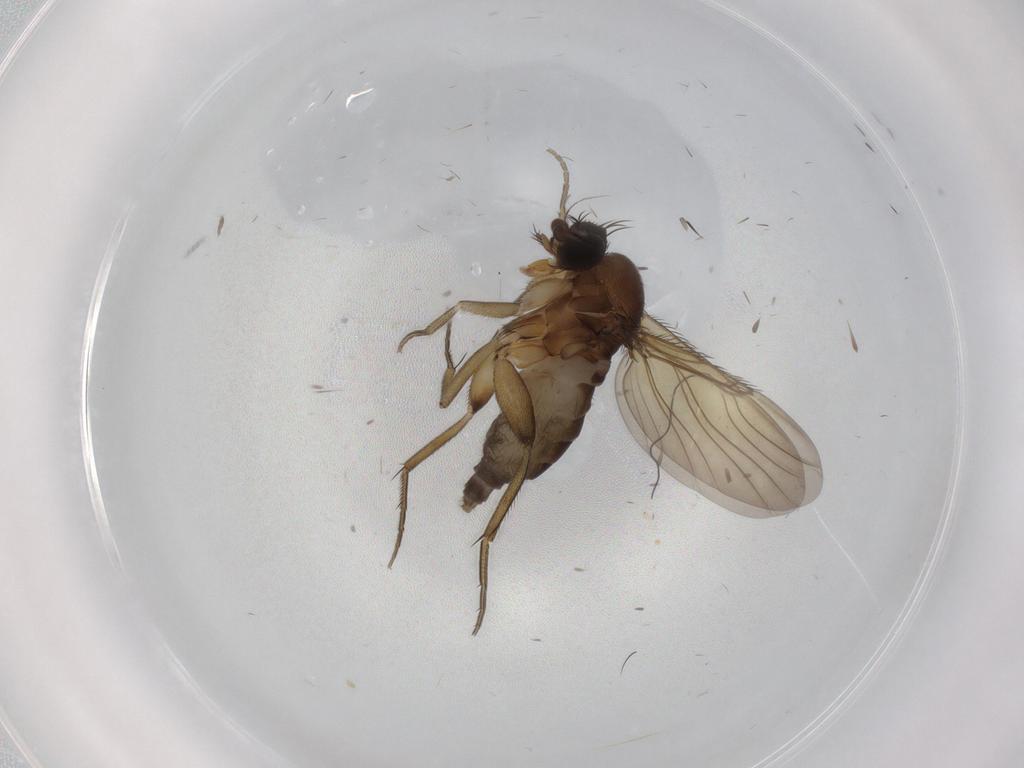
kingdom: Animalia
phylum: Arthropoda
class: Insecta
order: Diptera
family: Phoridae
